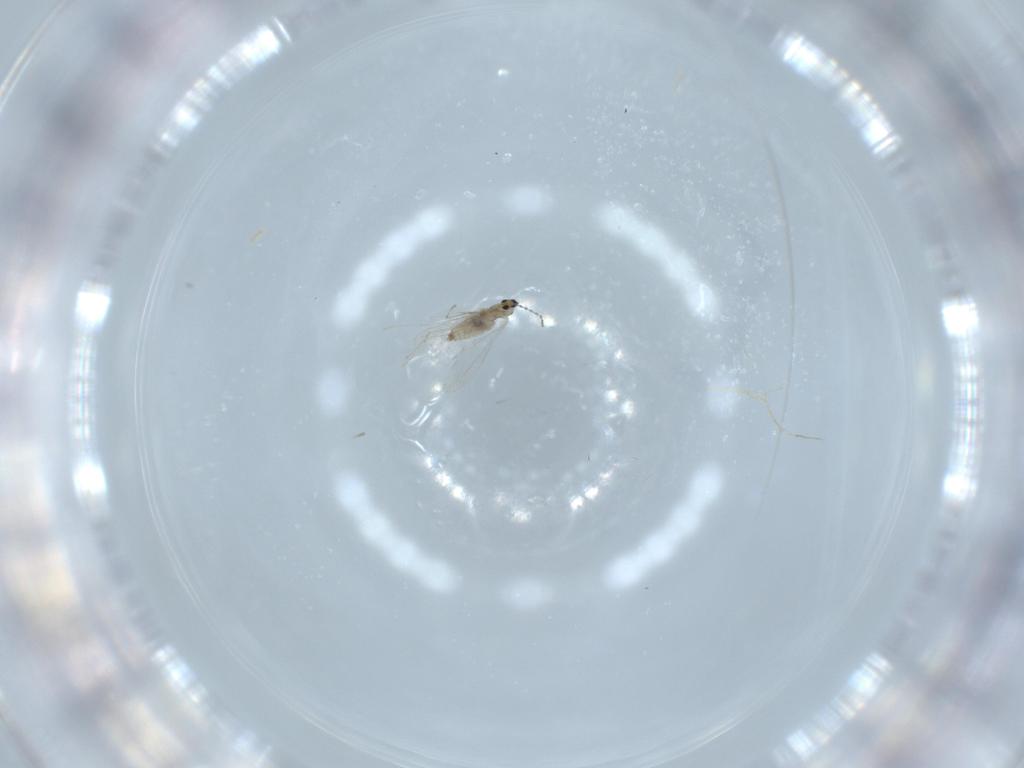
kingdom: Animalia
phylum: Arthropoda
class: Insecta
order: Diptera
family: Cecidomyiidae
